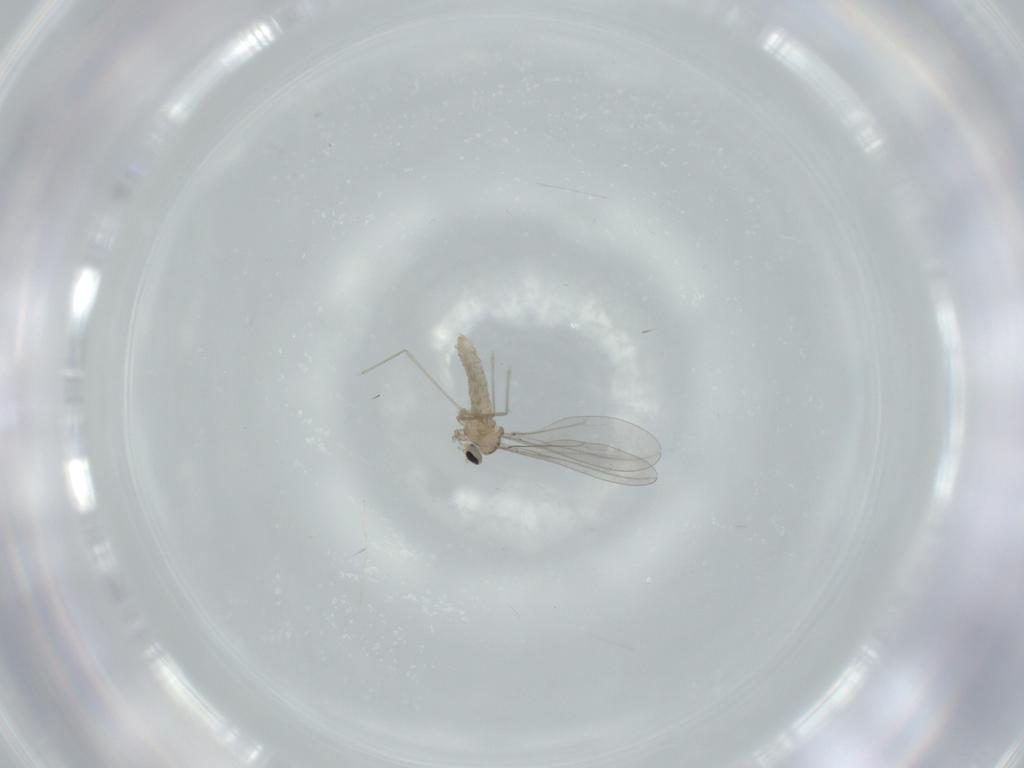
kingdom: Animalia
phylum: Arthropoda
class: Insecta
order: Diptera
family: Cecidomyiidae
